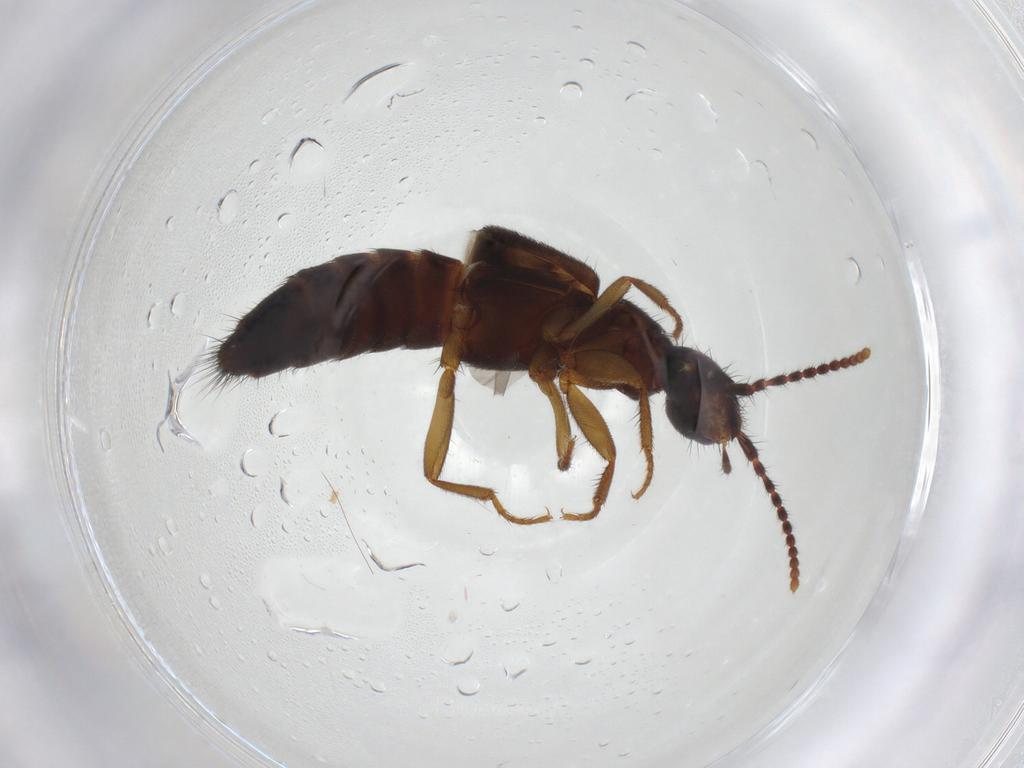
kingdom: Animalia
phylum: Arthropoda
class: Insecta
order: Coleoptera
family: Staphylinidae
